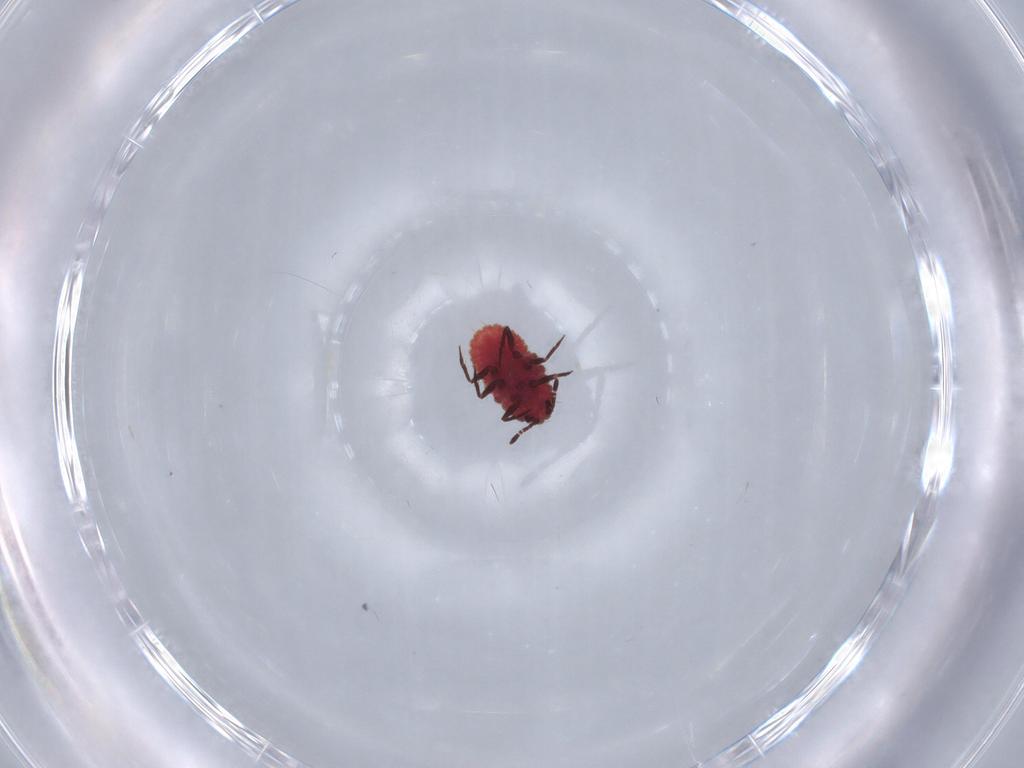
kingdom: Animalia
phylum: Arthropoda
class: Insecta
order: Hemiptera
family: Monophlebidae
